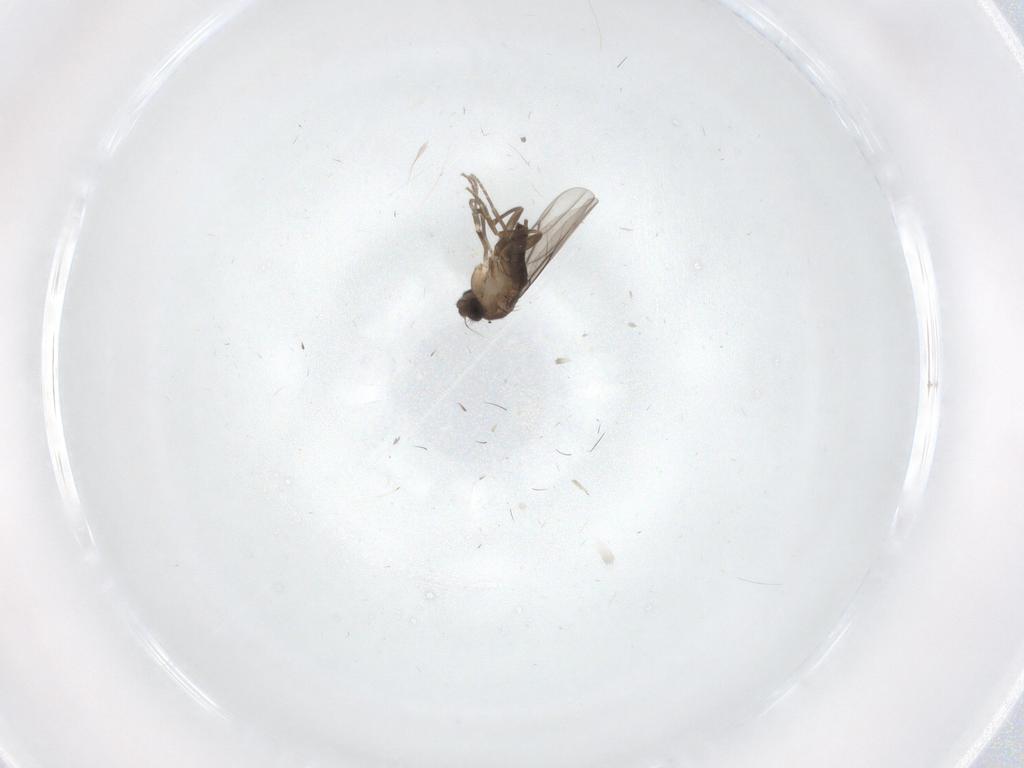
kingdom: Animalia
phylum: Arthropoda
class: Insecta
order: Diptera
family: Phoridae
